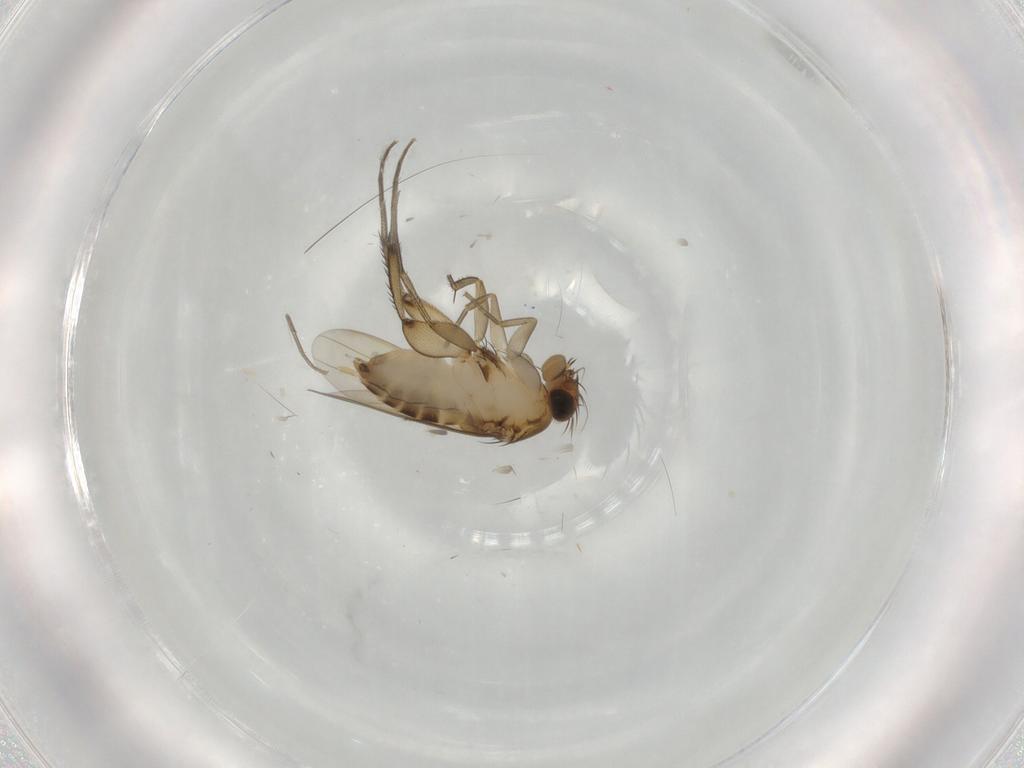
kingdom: Animalia
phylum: Arthropoda
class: Insecta
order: Diptera
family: Phoridae
